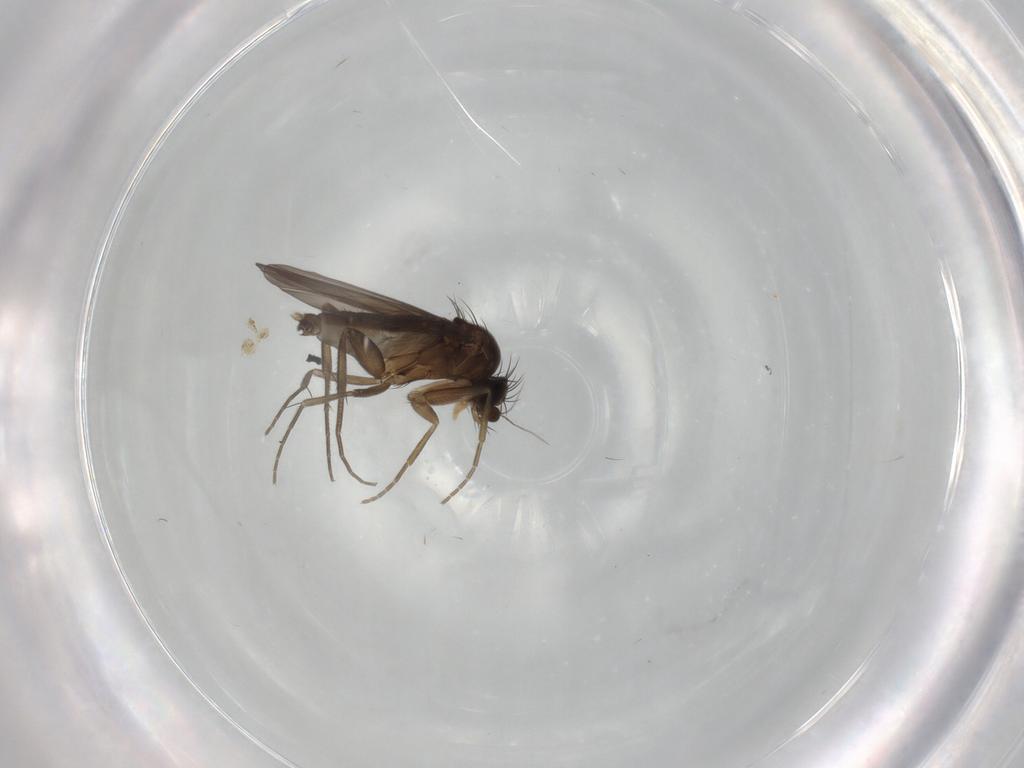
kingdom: Animalia
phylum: Arthropoda
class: Insecta
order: Diptera
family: Phoridae
